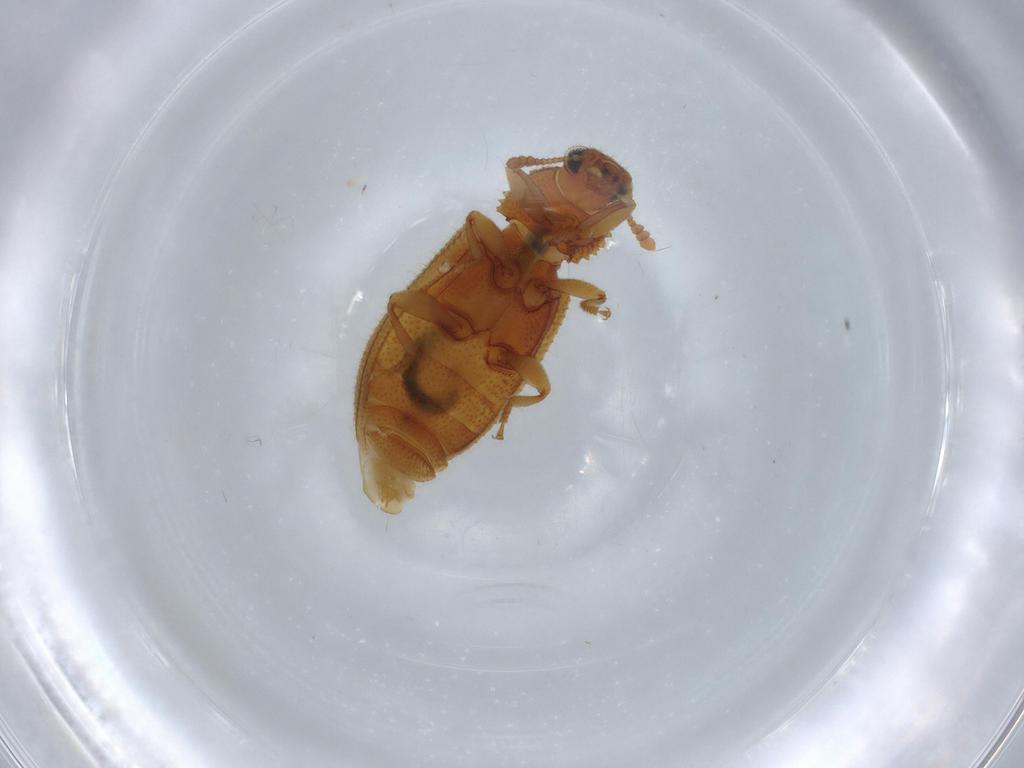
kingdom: Animalia
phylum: Arthropoda
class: Insecta
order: Coleoptera
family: Tenebrionidae
